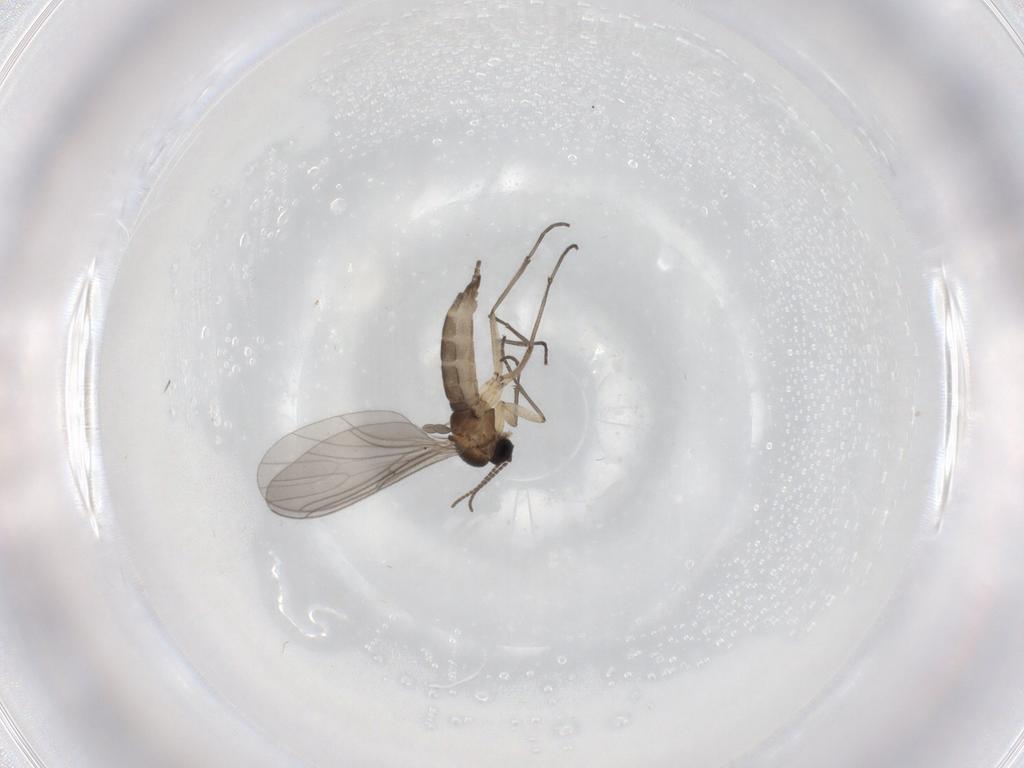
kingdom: Animalia
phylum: Arthropoda
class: Insecta
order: Diptera
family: Sciaridae
